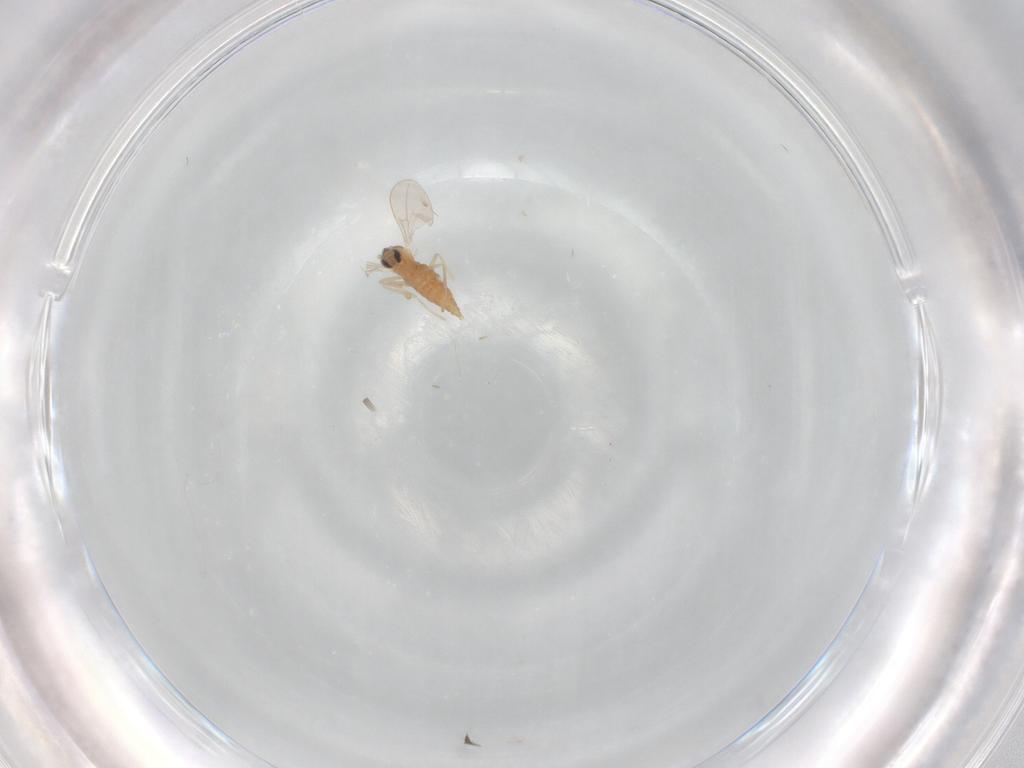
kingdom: Animalia
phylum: Arthropoda
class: Insecta
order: Diptera
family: Cecidomyiidae
